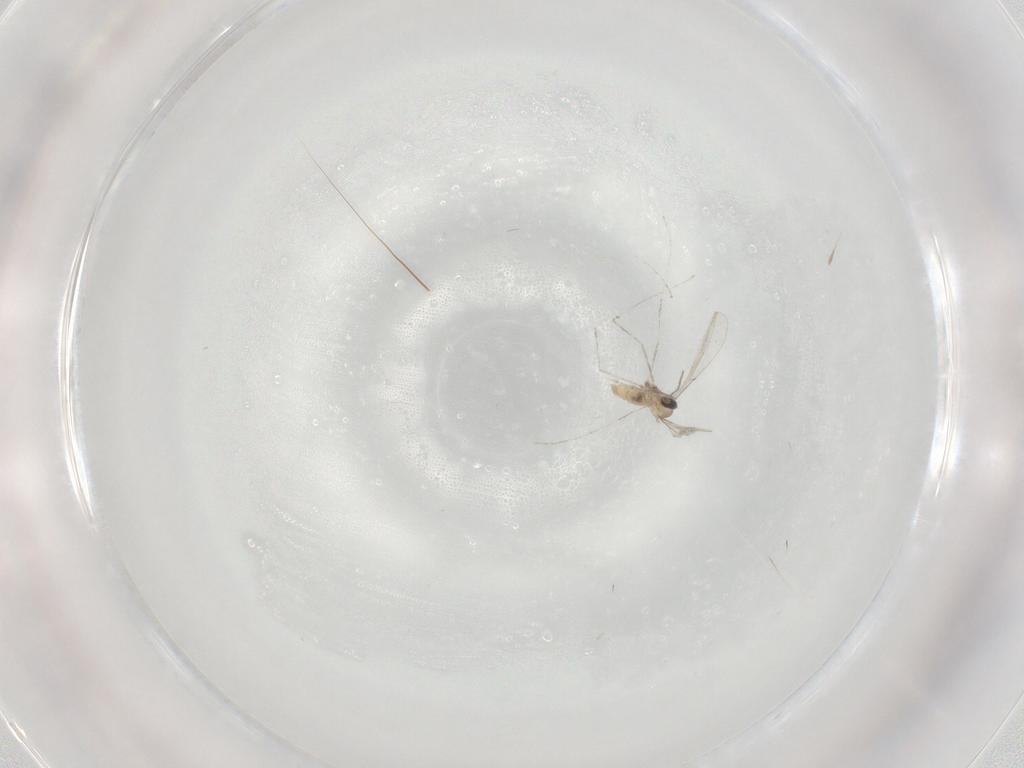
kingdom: Animalia
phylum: Arthropoda
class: Insecta
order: Diptera
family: Cecidomyiidae
